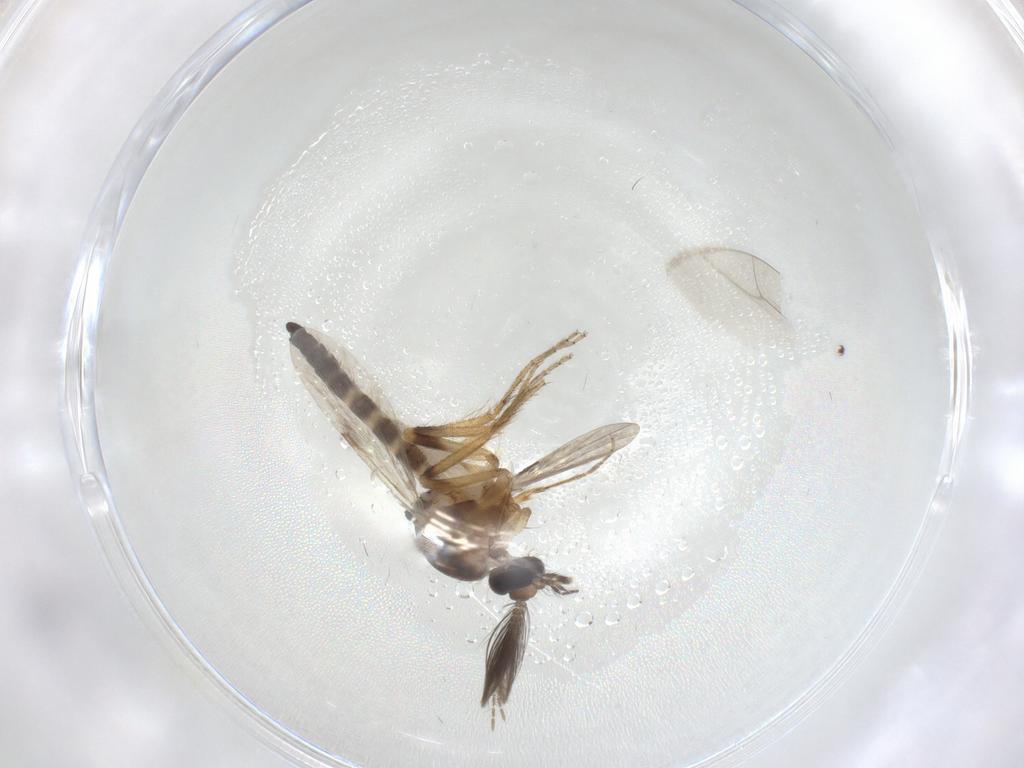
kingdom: Animalia
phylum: Arthropoda
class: Insecta
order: Diptera
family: Ceratopogonidae
